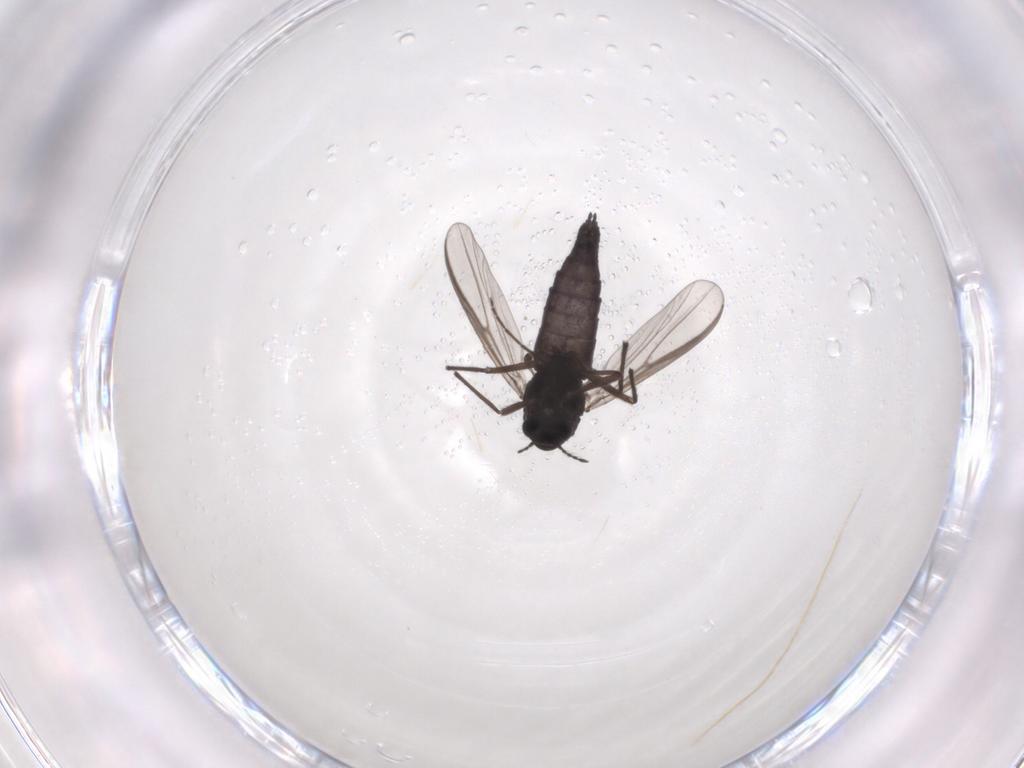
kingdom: Animalia
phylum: Arthropoda
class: Insecta
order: Diptera
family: Chironomidae
